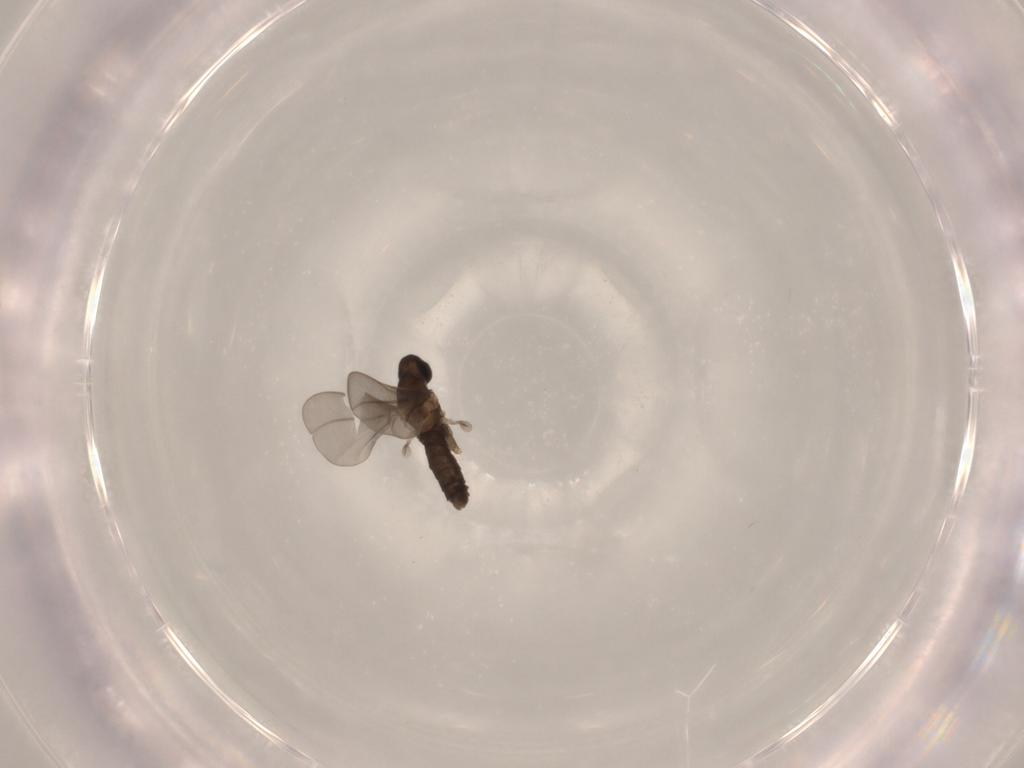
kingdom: Animalia
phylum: Arthropoda
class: Insecta
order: Diptera
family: Cecidomyiidae
